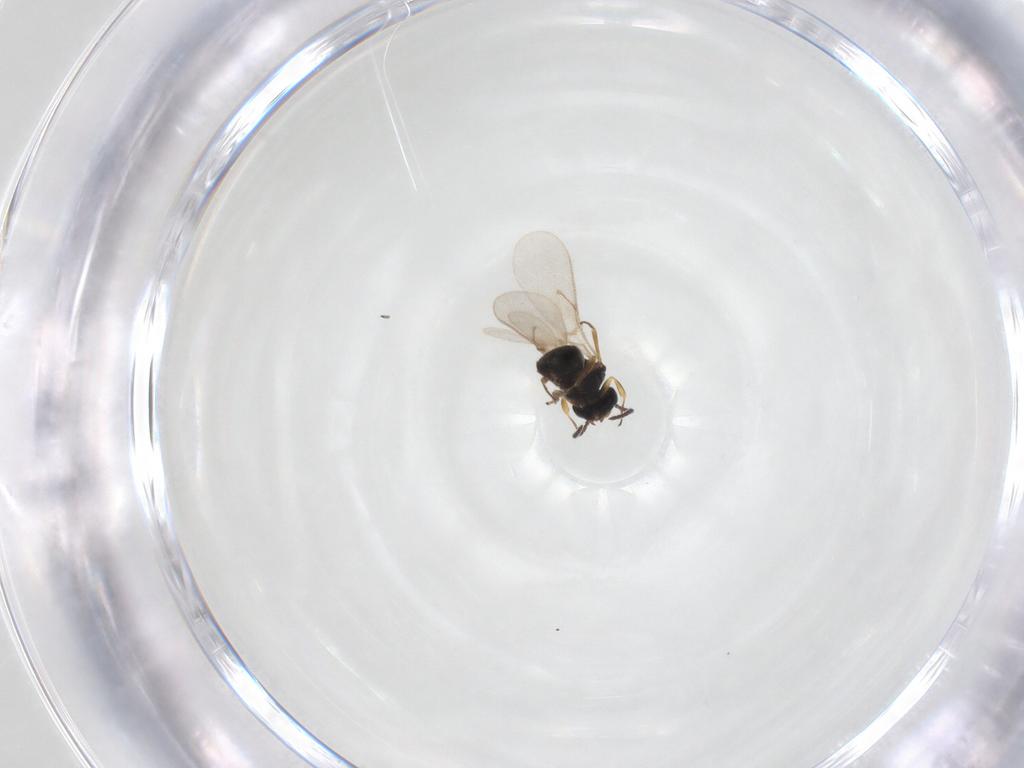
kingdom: Animalia
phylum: Arthropoda
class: Insecta
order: Hymenoptera
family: Scelionidae
